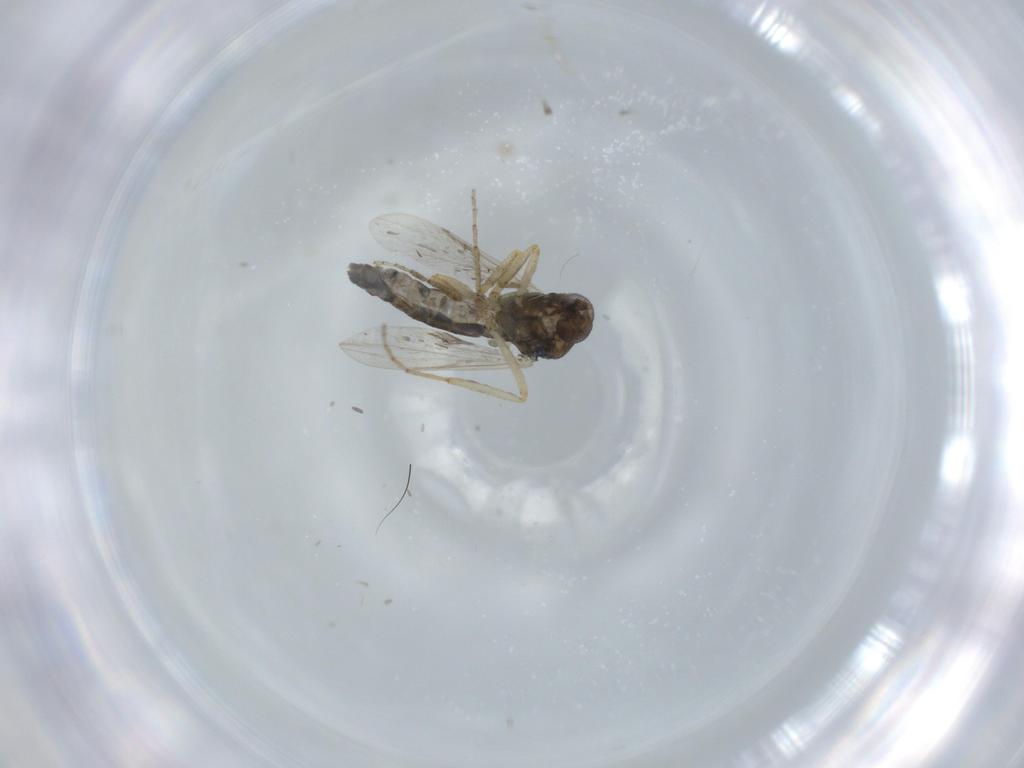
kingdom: Animalia
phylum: Arthropoda
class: Insecta
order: Diptera
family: Ceratopogonidae
